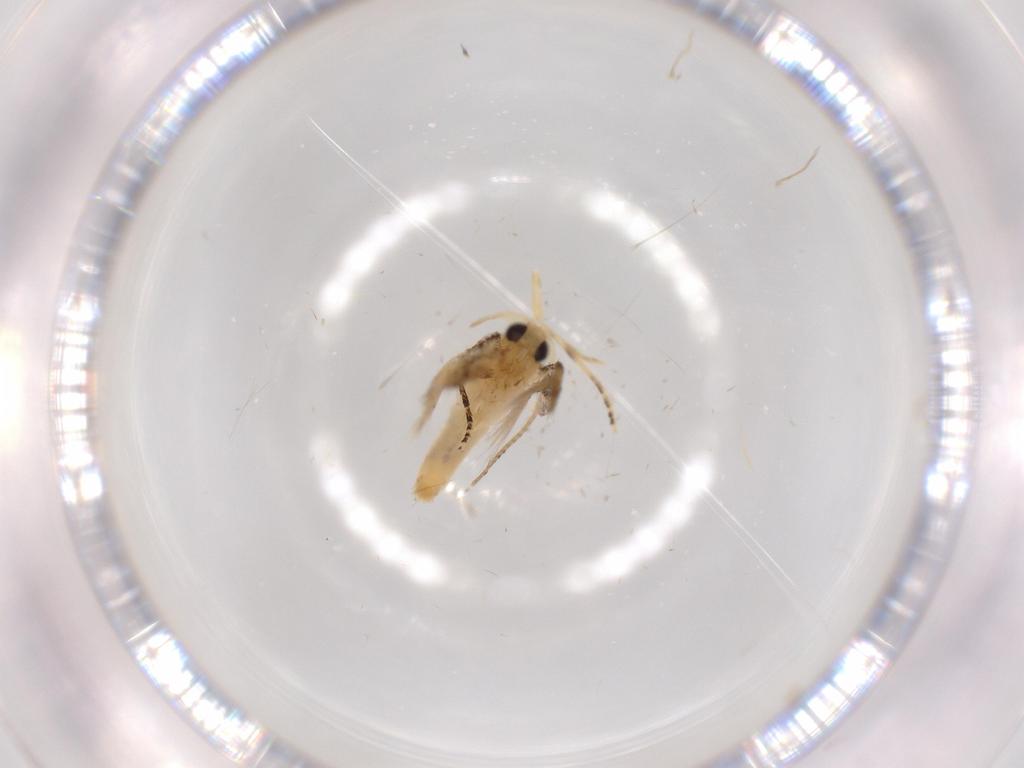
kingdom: Animalia
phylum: Arthropoda
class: Insecta
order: Lepidoptera
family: Bucculatricidae
